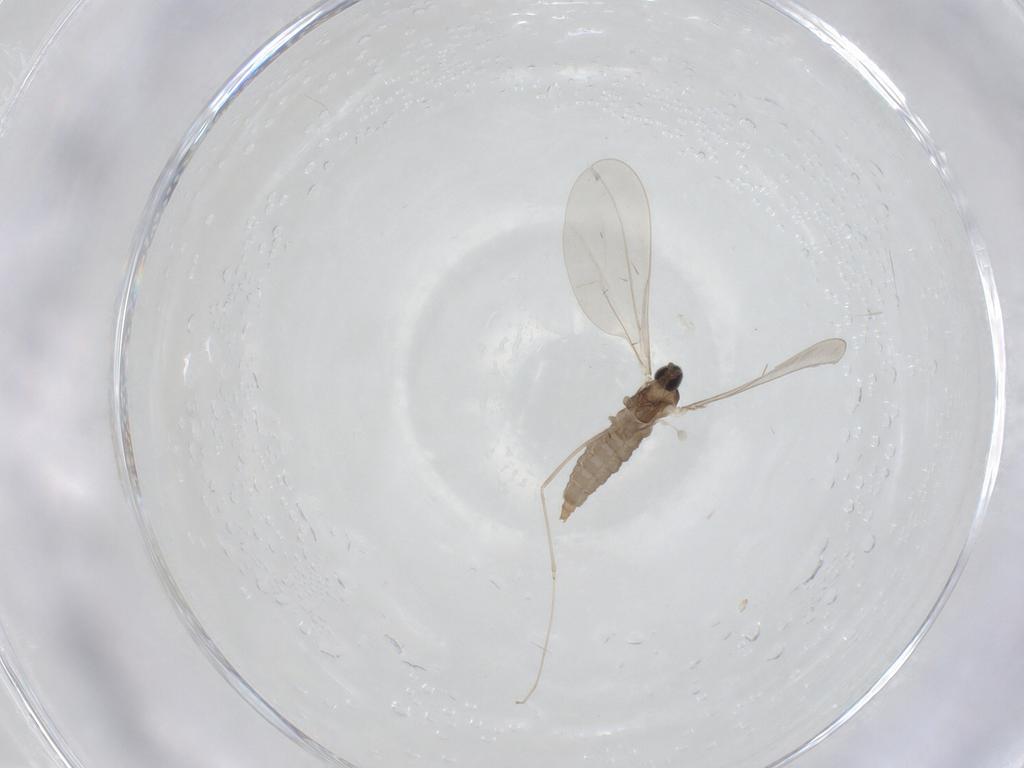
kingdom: Animalia
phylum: Arthropoda
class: Insecta
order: Diptera
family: Cecidomyiidae
